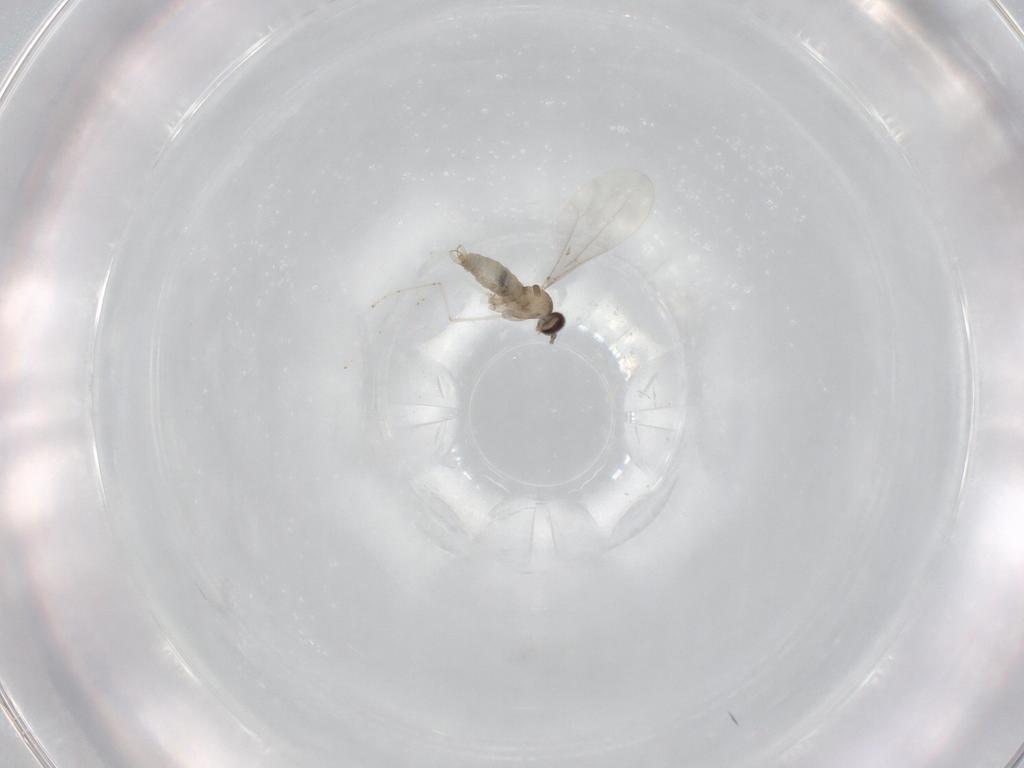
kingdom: Animalia
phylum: Arthropoda
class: Insecta
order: Diptera
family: Cecidomyiidae
